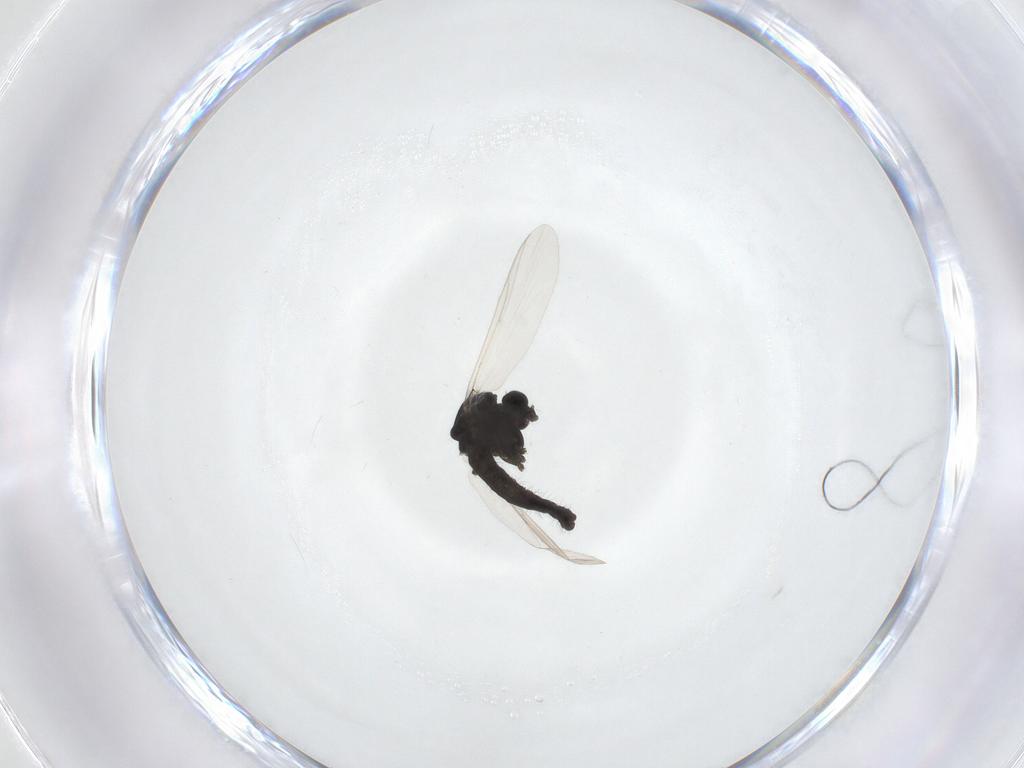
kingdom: Animalia
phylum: Arthropoda
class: Insecta
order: Diptera
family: Chironomidae
